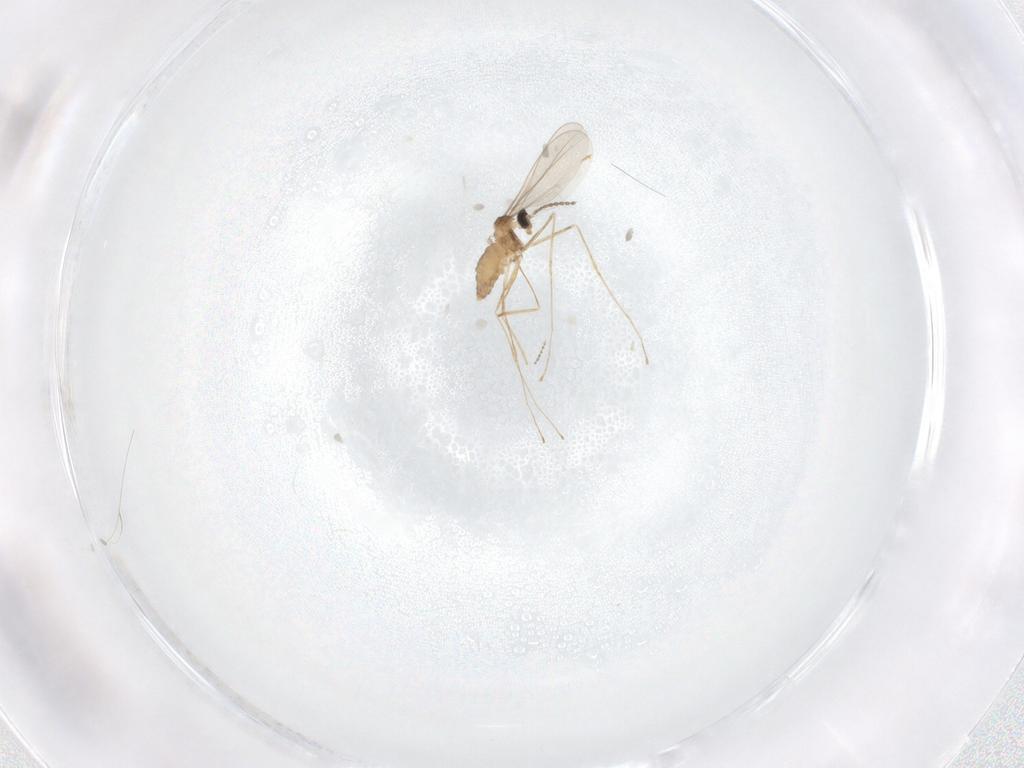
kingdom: Animalia
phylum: Arthropoda
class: Insecta
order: Diptera
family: Cecidomyiidae
